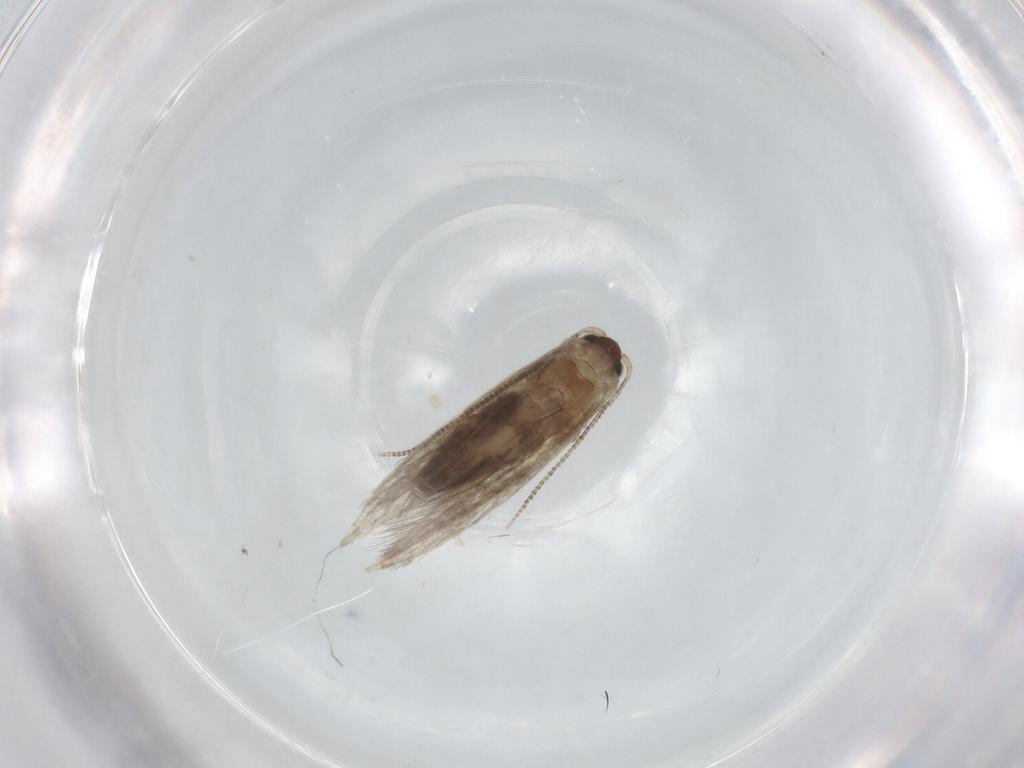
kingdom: Animalia
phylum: Arthropoda
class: Insecta
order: Lepidoptera
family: Tineidae
